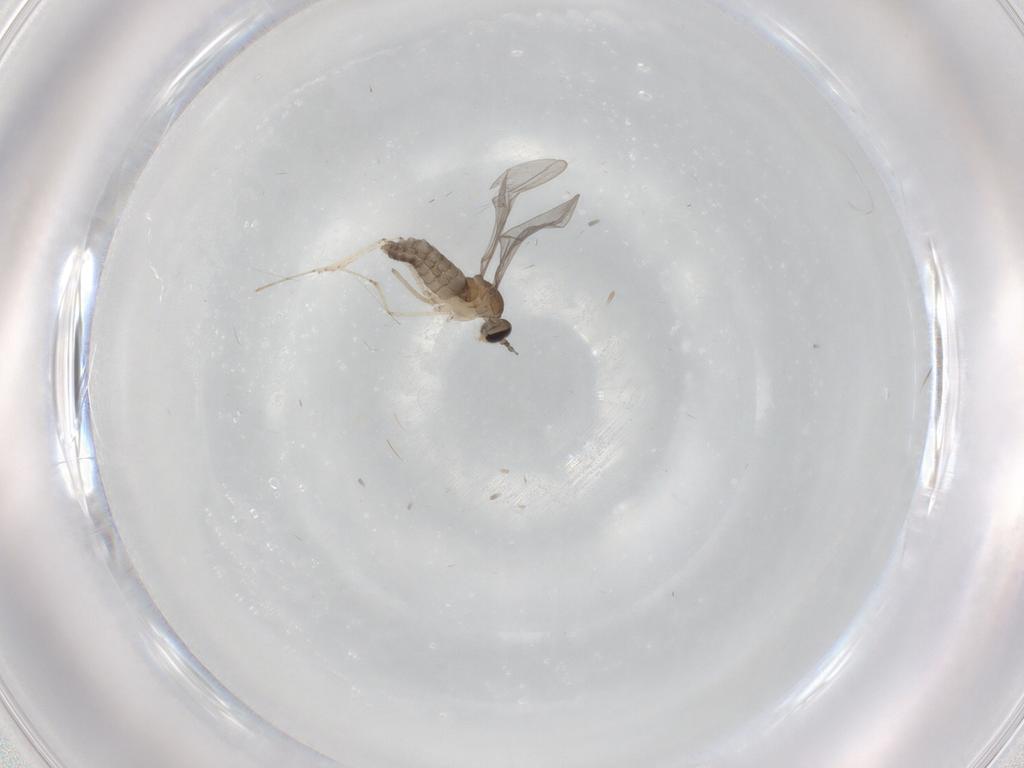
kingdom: Animalia
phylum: Arthropoda
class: Insecta
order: Diptera
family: Cecidomyiidae
